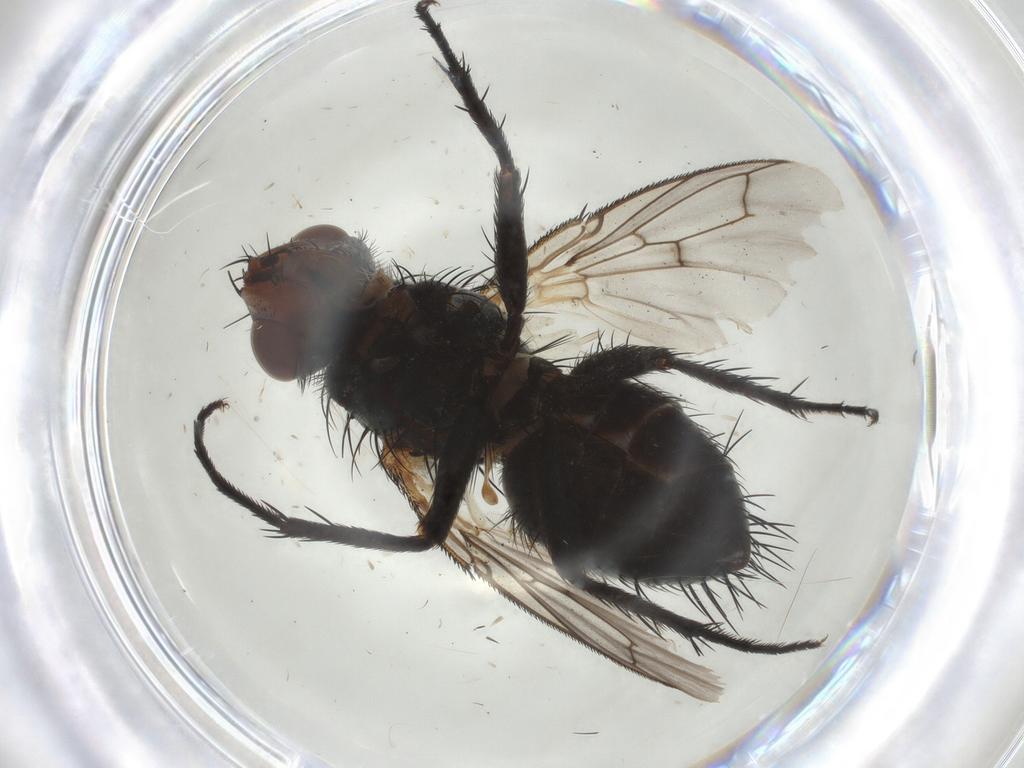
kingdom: Animalia
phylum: Arthropoda
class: Insecta
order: Diptera
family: Tachinidae
